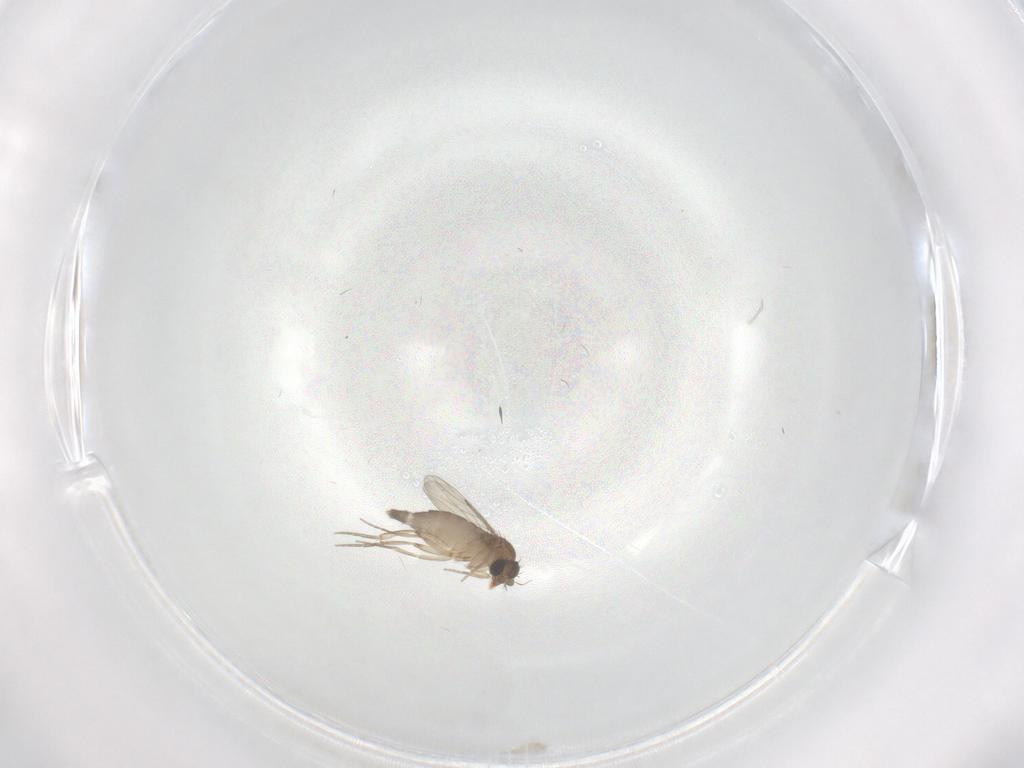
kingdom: Animalia
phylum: Arthropoda
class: Insecta
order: Diptera
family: Phoridae
